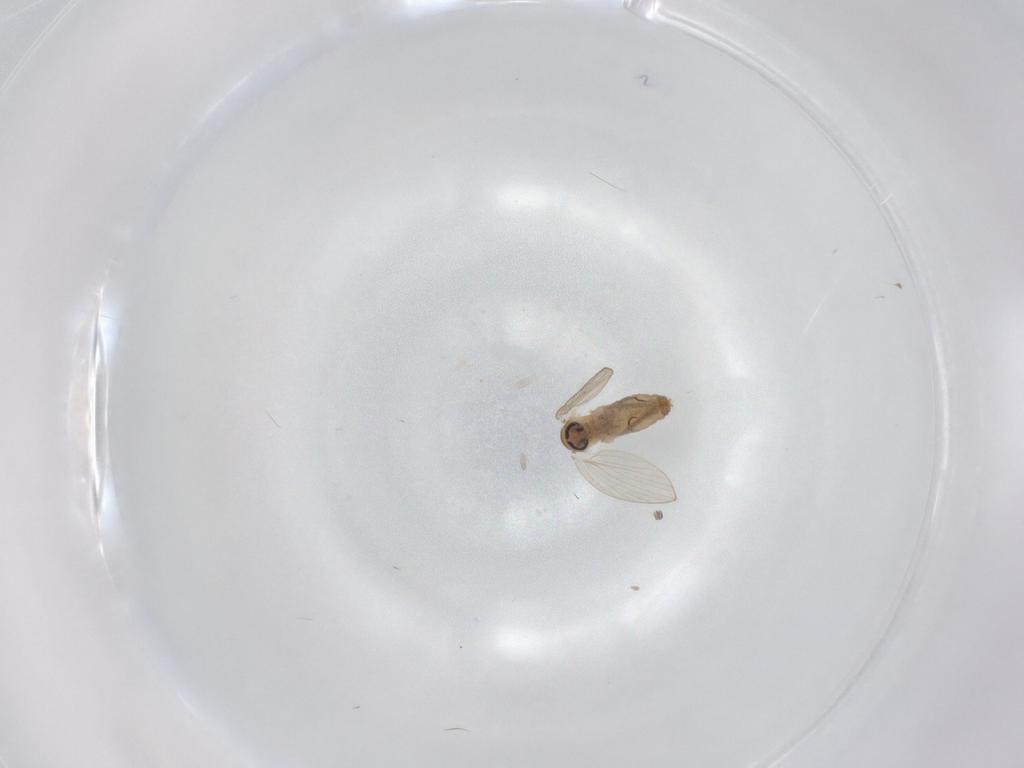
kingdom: Animalia
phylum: Arthropoda
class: Insecta
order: Diptera
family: Psychodidae
